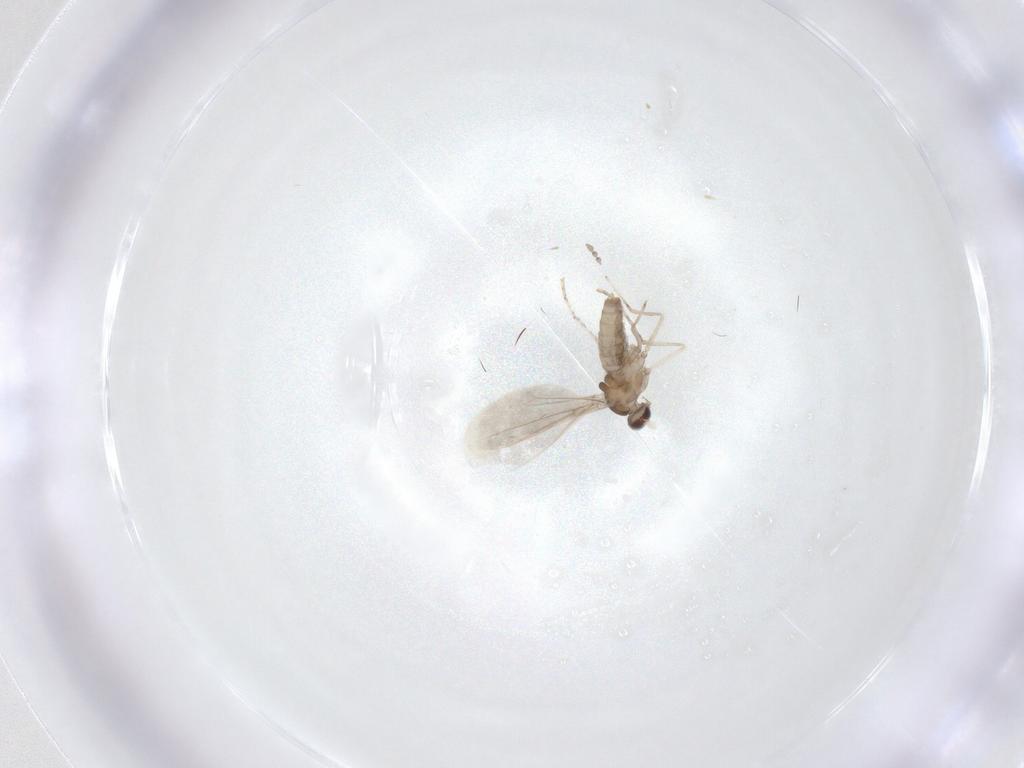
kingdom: Animalia
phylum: Arthropoda
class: Insecta
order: Diptera
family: Cecidomyiidae
